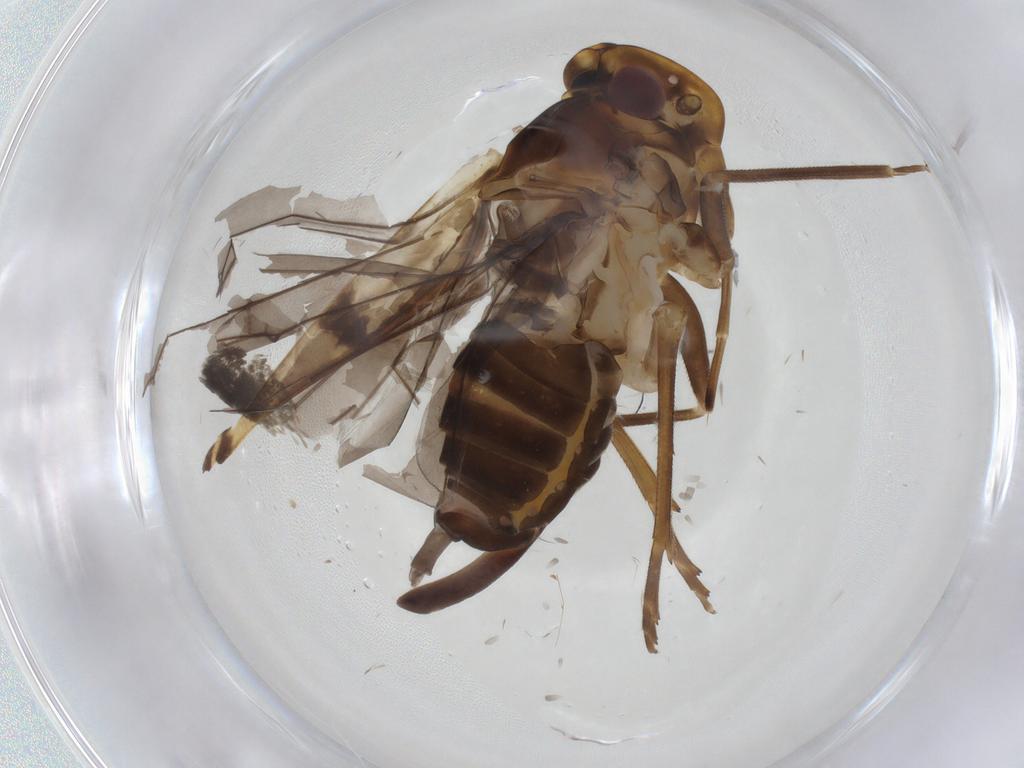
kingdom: Animalia
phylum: Arthropoda
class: Insecta
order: Hemiptera
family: Cixiidae
